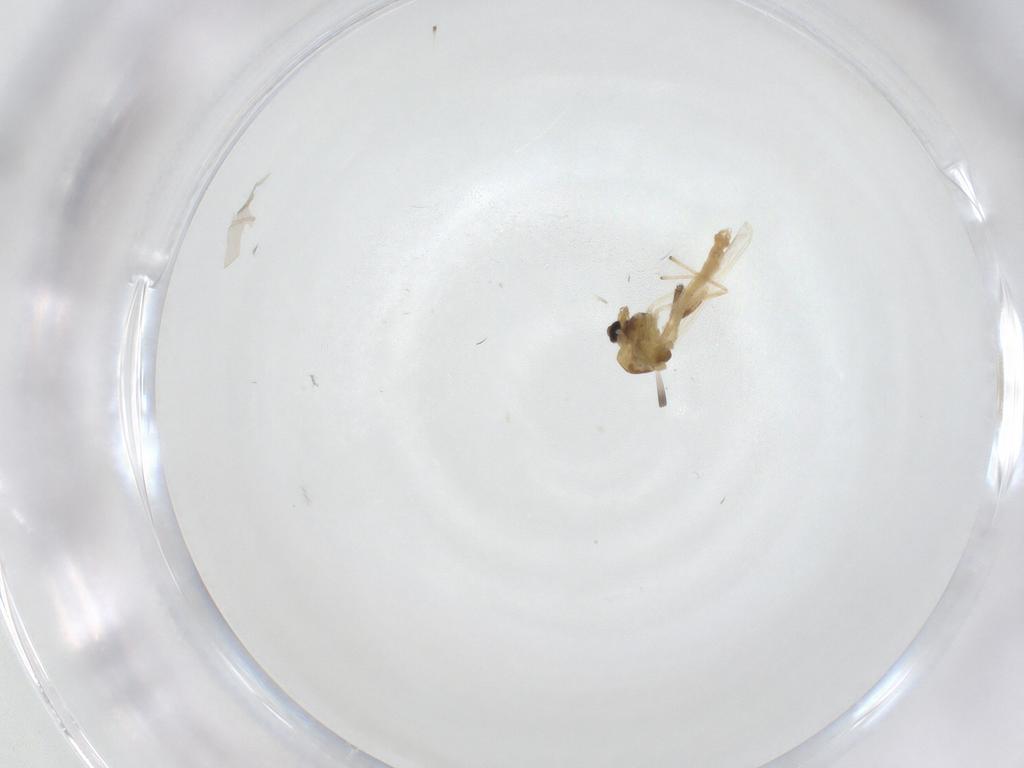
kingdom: Animalia
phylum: Arthropoda
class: Insecta
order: Diptera
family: Chironomidae
